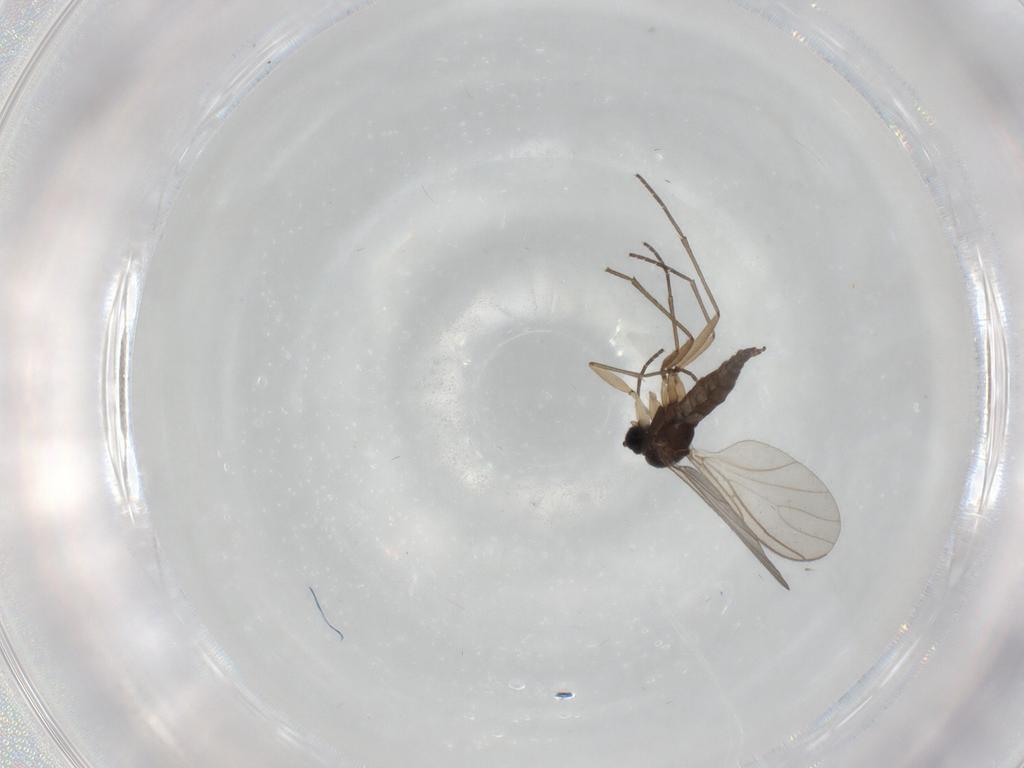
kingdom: Animalia
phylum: Arthropoda
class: Insecta
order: Diptera
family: Sciaridae
